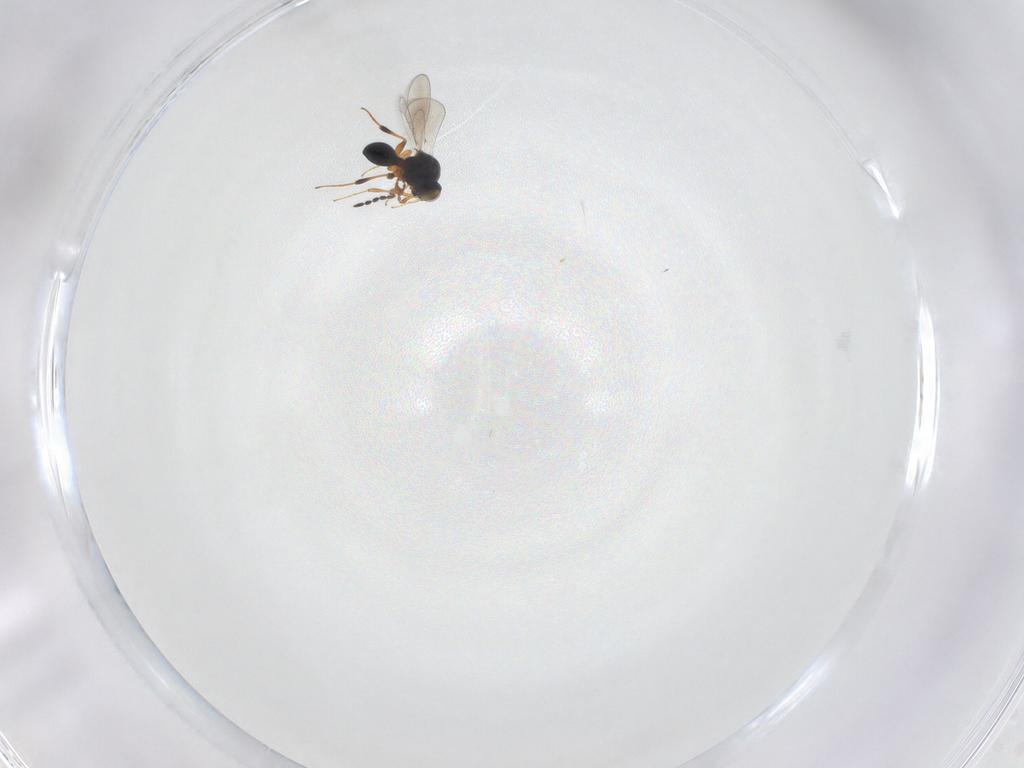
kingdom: Animalia
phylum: Arthropoda
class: Insecta
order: Hymenoptera
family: Platygastridae
